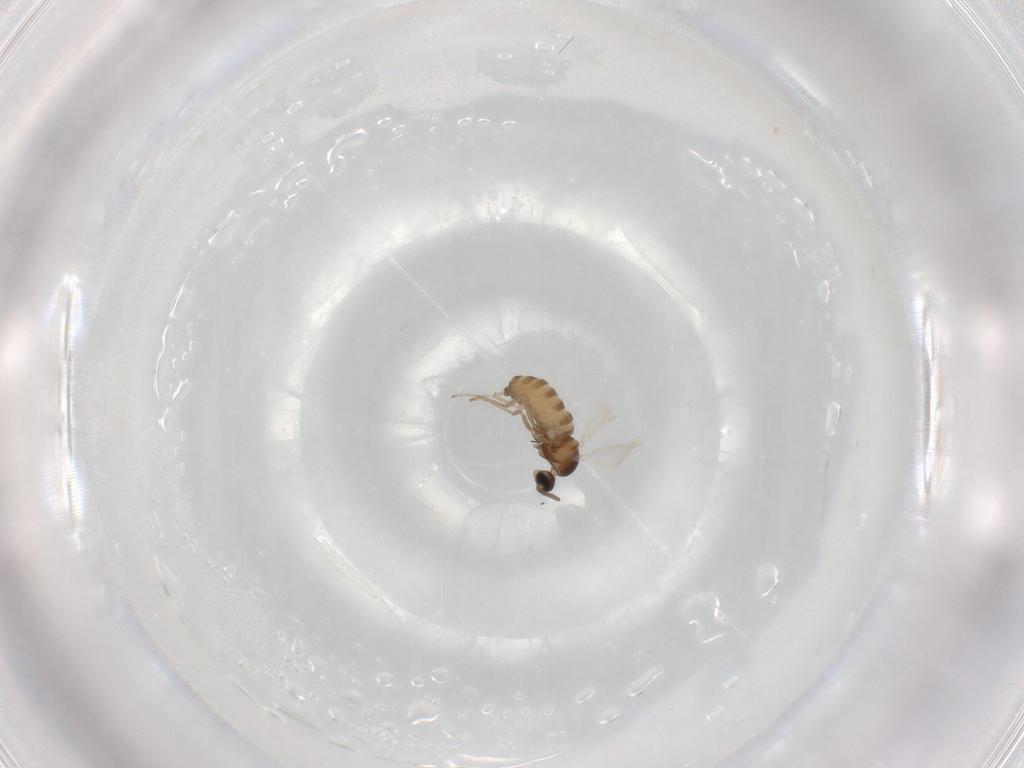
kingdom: Animalia
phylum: Arthropoda
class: Insecta
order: Diptera
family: Cecidomyiidae
